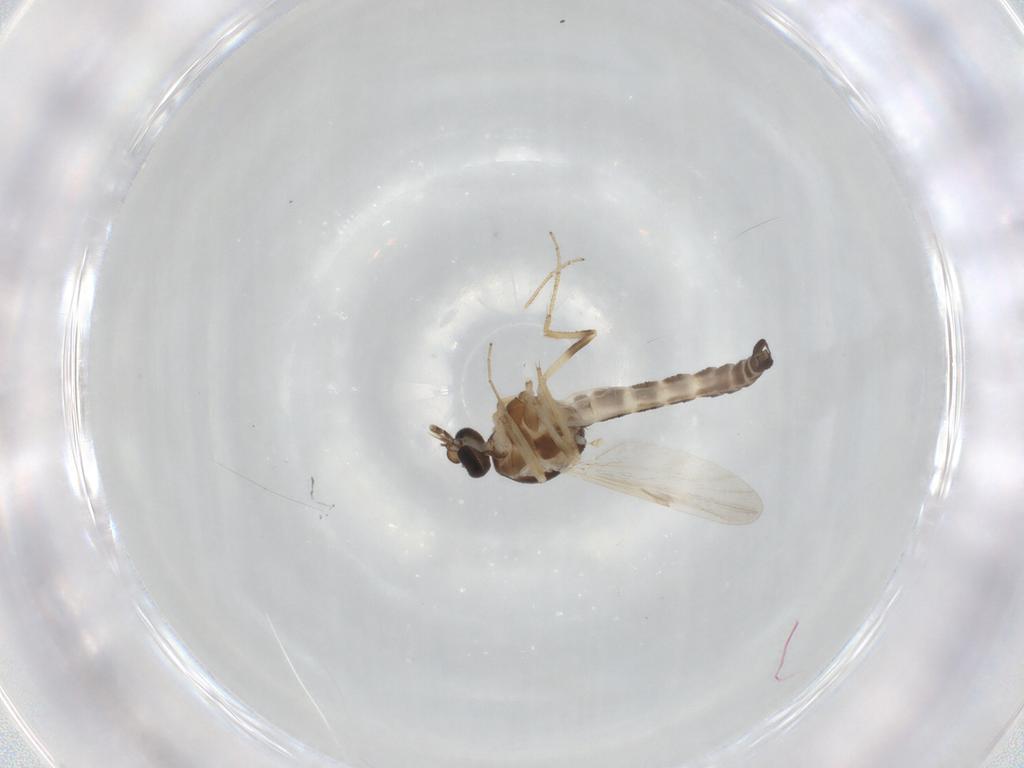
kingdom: Animalia
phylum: Arthropoda
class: Insecta
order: Diptera
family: Ceratopogonidae
